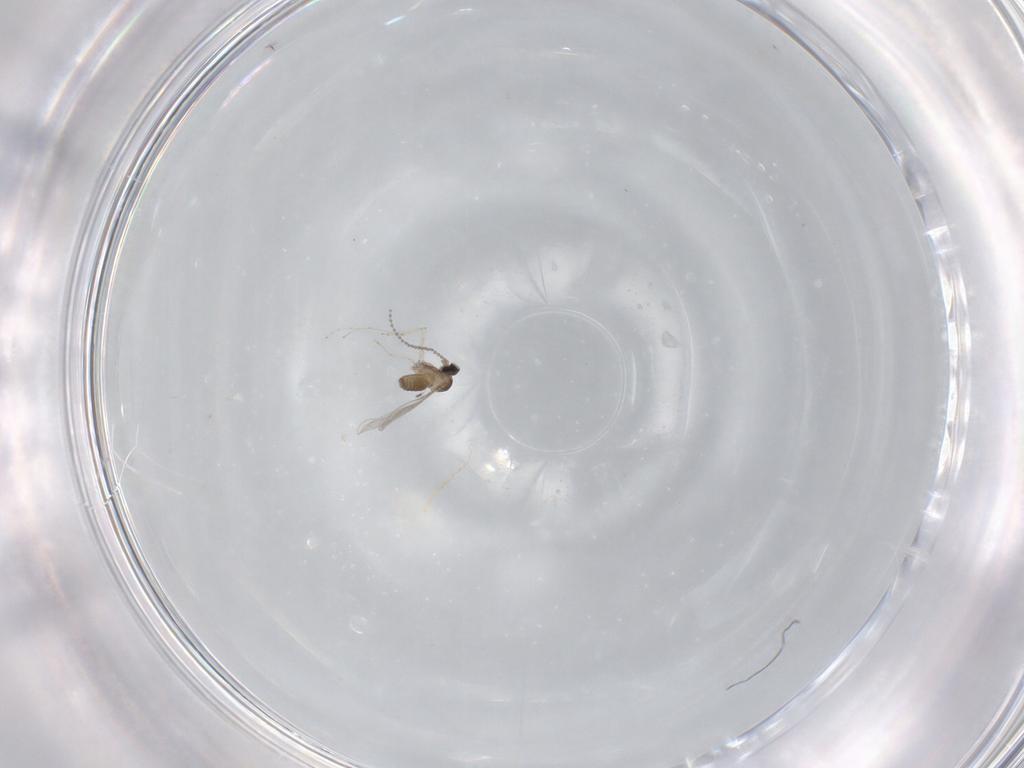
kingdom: Animalia
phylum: Arthropoda
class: Insecta
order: Diptera
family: Cecidomyiidae
